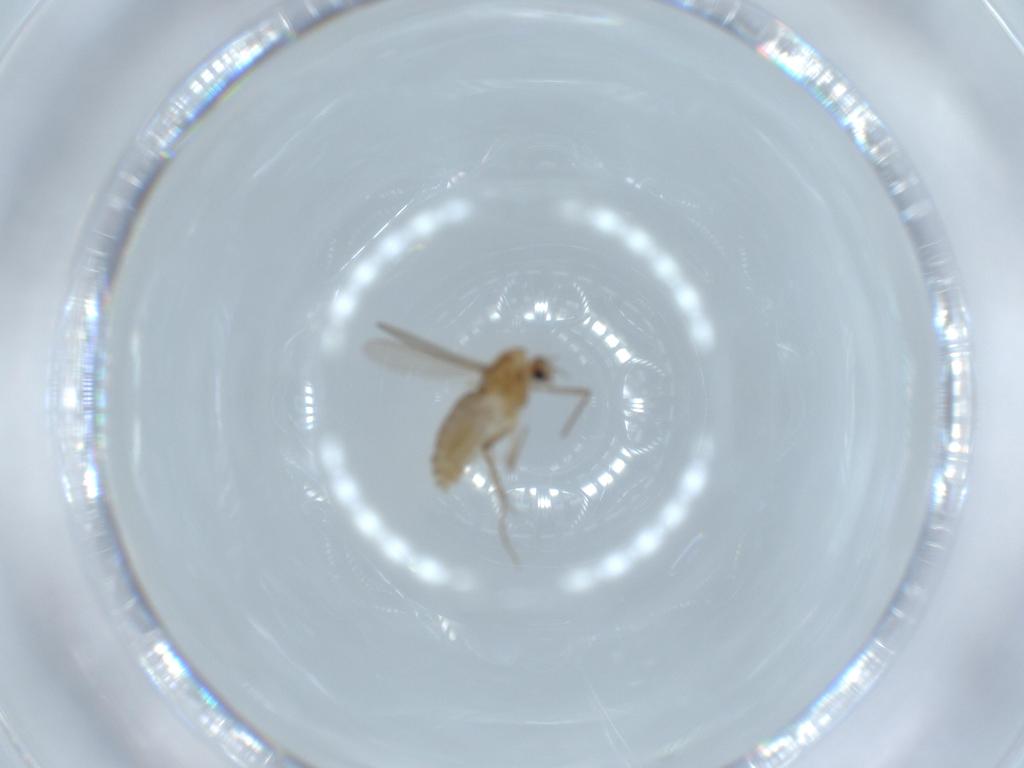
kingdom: Animalia
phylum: Arthropoda
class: Insecta
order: Diptera
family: Chironomidae
